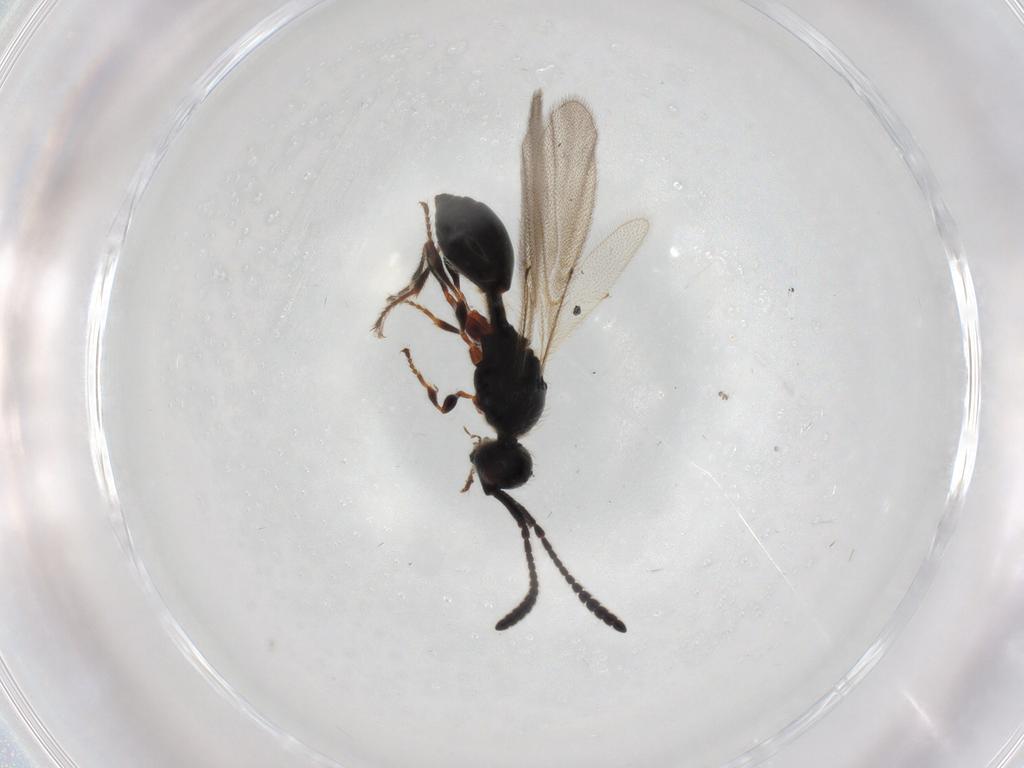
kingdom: Animalia
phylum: Arthropoda
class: Insecta
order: Hymenoptera
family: Diapriidae
